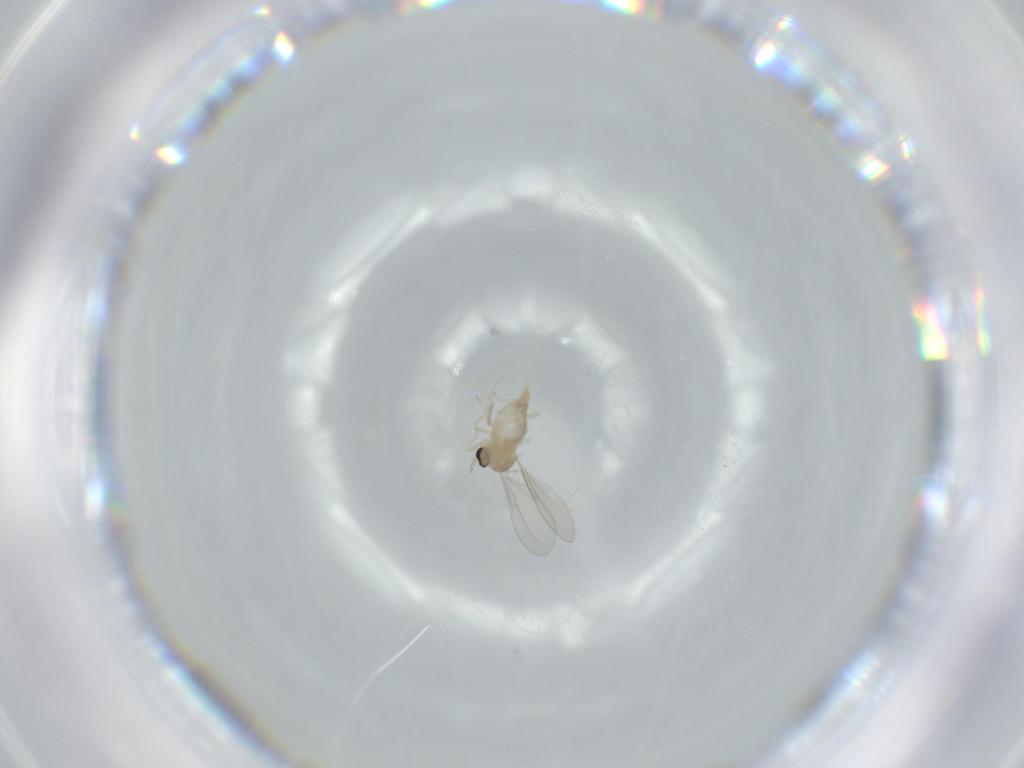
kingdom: Animalia
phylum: Arthropoda
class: Insecta
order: Diptera
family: Cecidomyiidae
